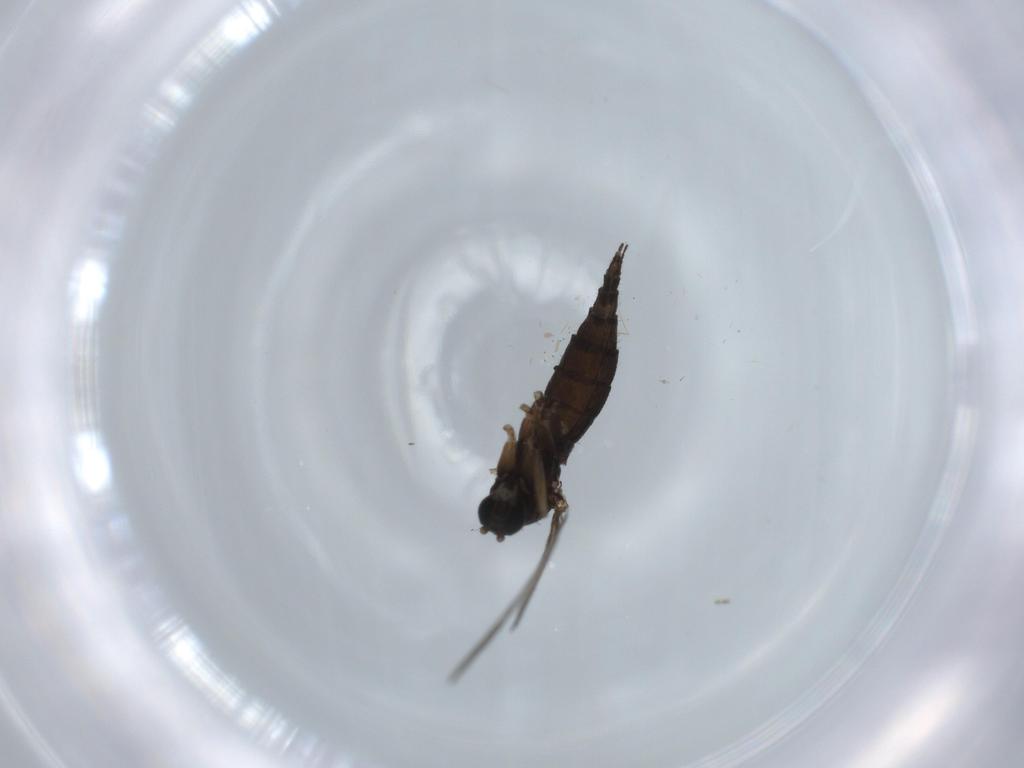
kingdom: Animalia
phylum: Arthropoda
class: Insecta
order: Diptera
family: Sciaridae
